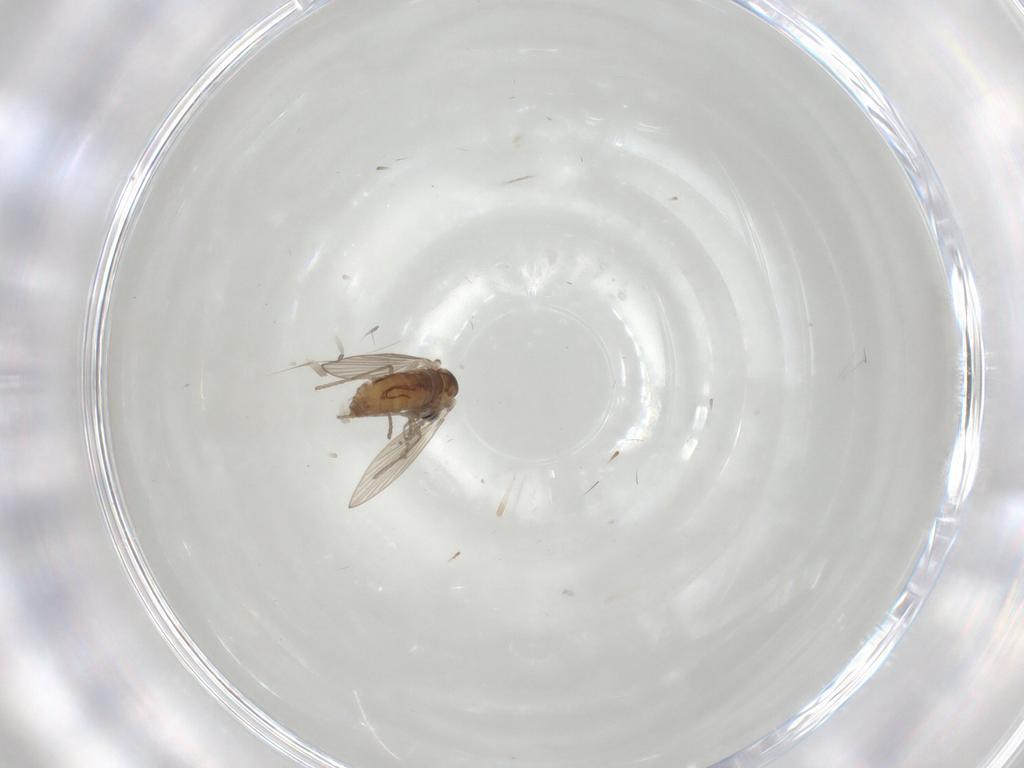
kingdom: Animalia
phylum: Arthropoda
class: Insecta
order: Diptera
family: Psychodidae
